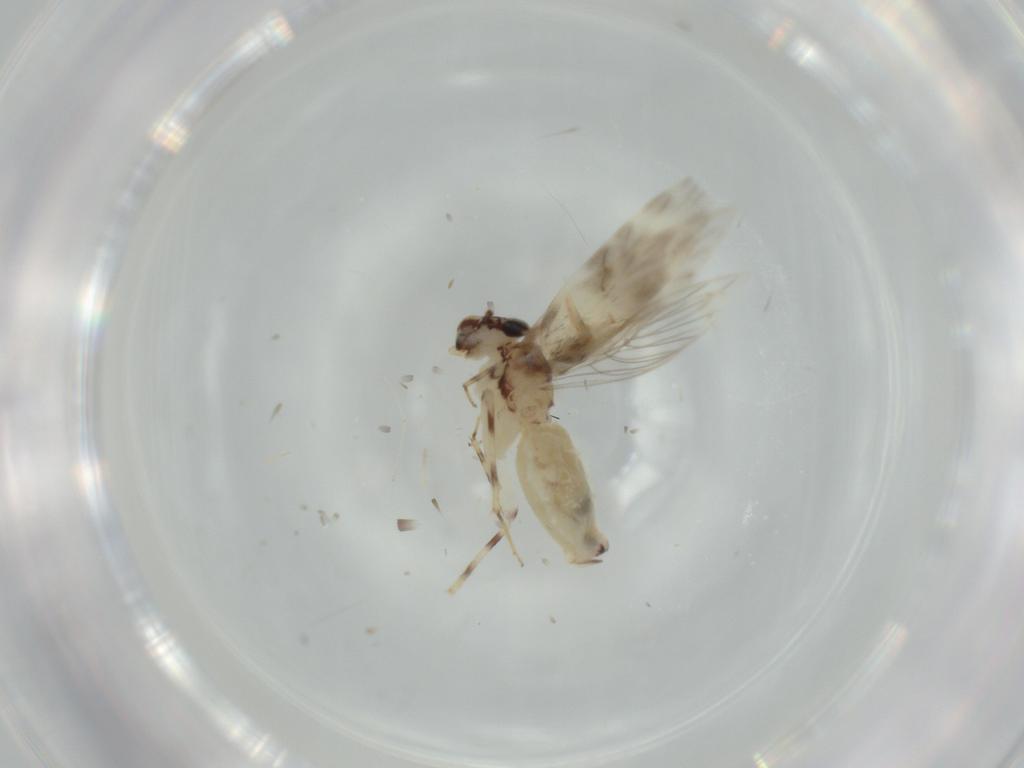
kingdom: Animalia
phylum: Arthropoda
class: Insecta
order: Psocodea
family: Lepidopsocidae
